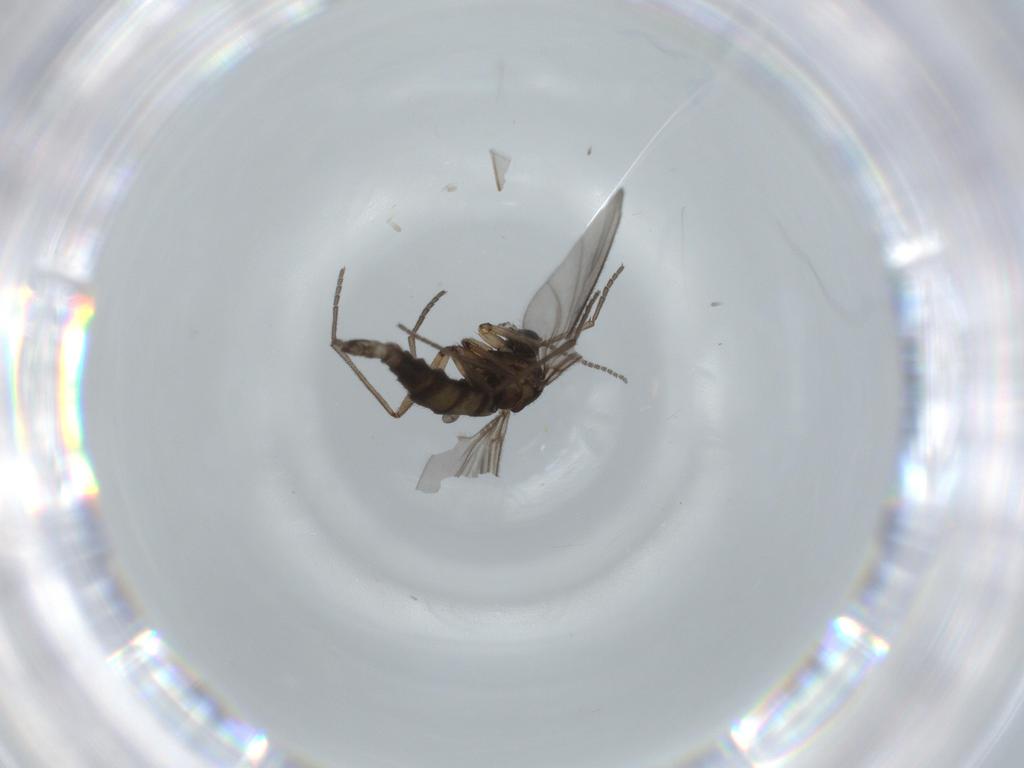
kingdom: Animalia
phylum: Arthropoda
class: Insecta
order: Diptera
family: Sciaridae
